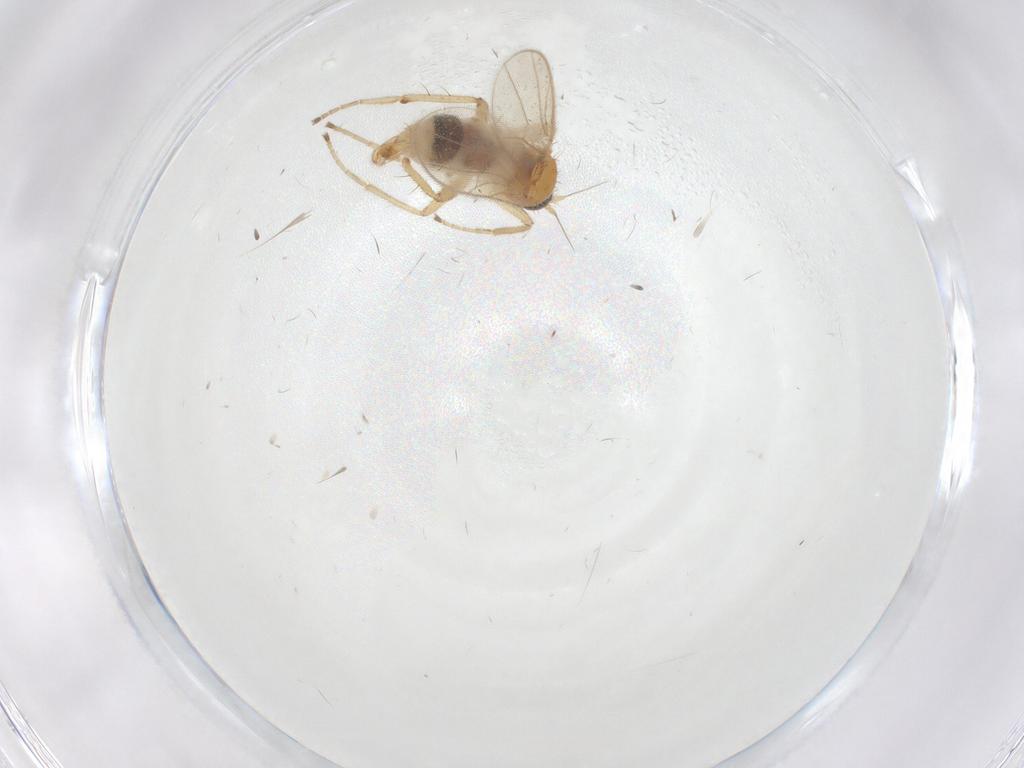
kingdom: Animalia
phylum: Arthropoda
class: Insecta
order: Diptera
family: Hybotidae
